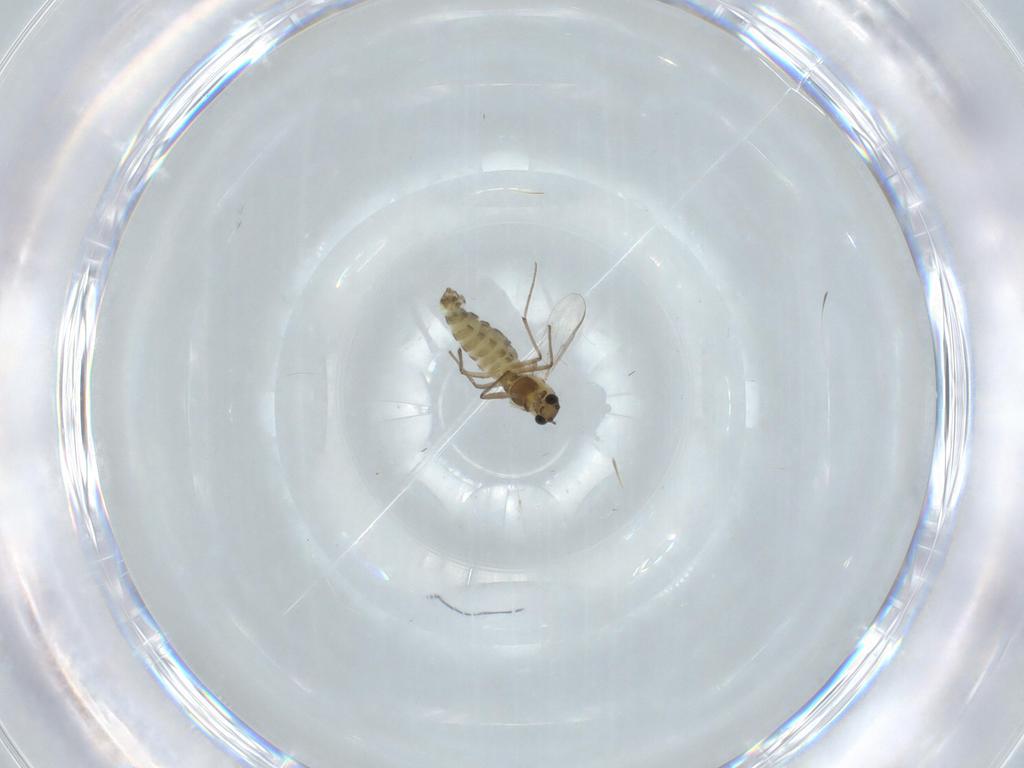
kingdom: Animalia
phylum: Arthropoda
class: Insecta
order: Diptera
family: Chironomidae
